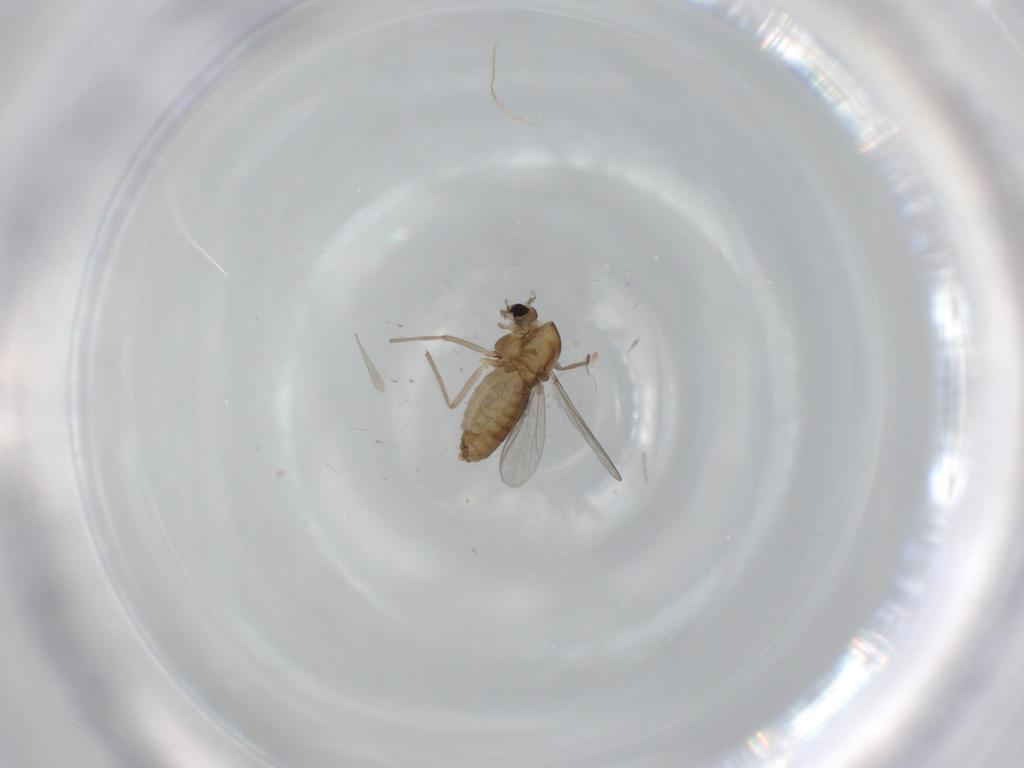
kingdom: Animalia
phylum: Arthropoda
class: Insecta
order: Diptera
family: Chironomidae
